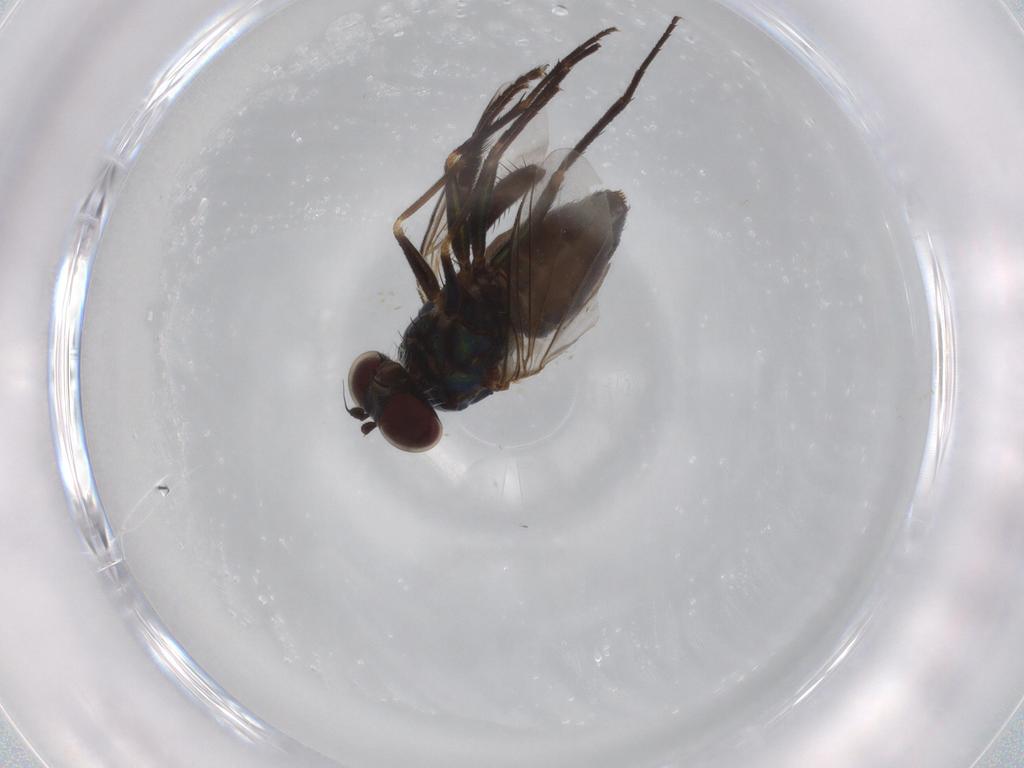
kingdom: Animalia
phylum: Arthropoda
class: Insecta
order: Diptera
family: Dolichopodidae
